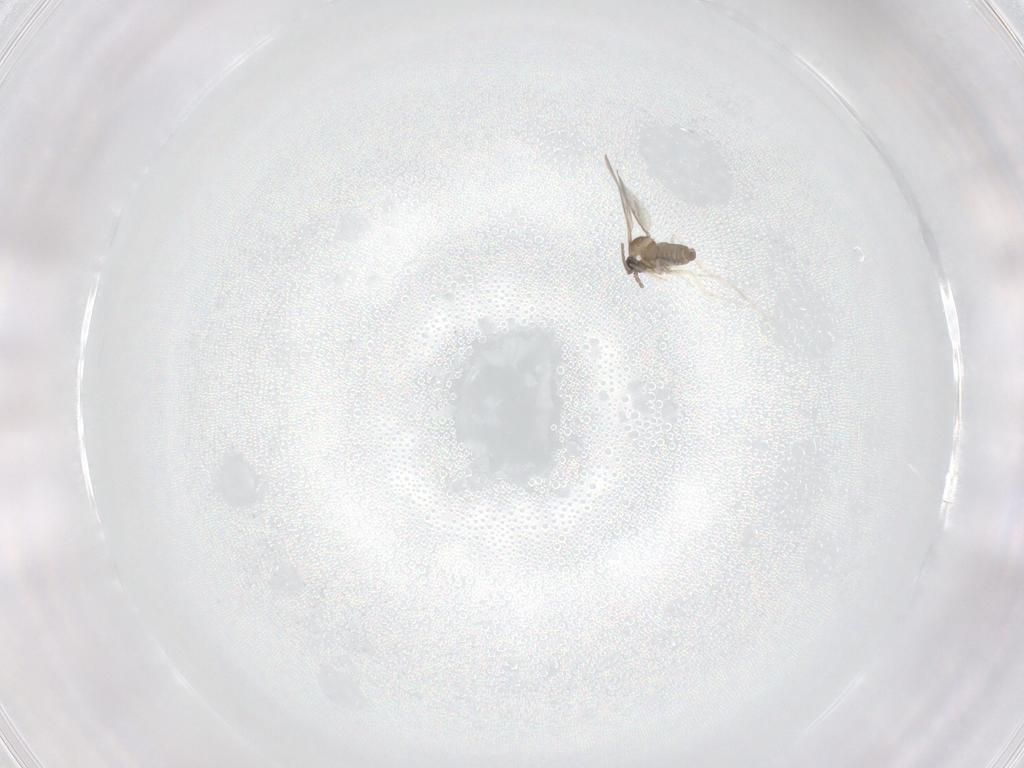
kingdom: Animalia
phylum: Arthropoda
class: Insecta
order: Diptera
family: Cecidomyiidae
